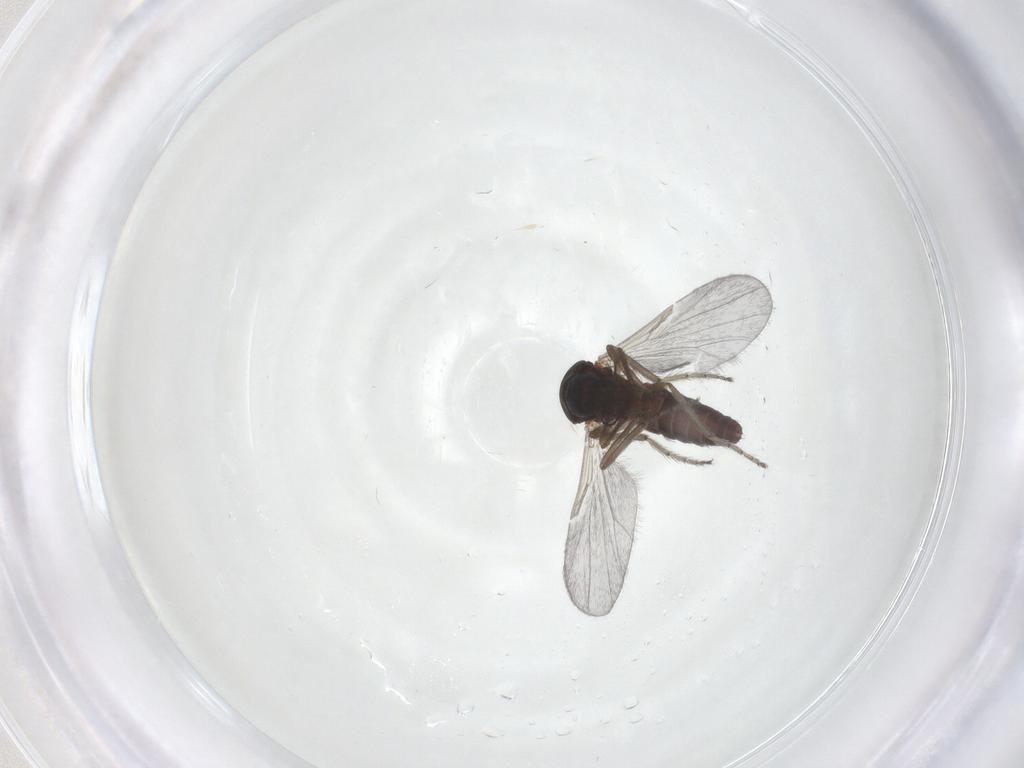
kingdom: Animalia
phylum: Arthropoda
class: Insecta
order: Diptera
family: Ceratopogonidae
